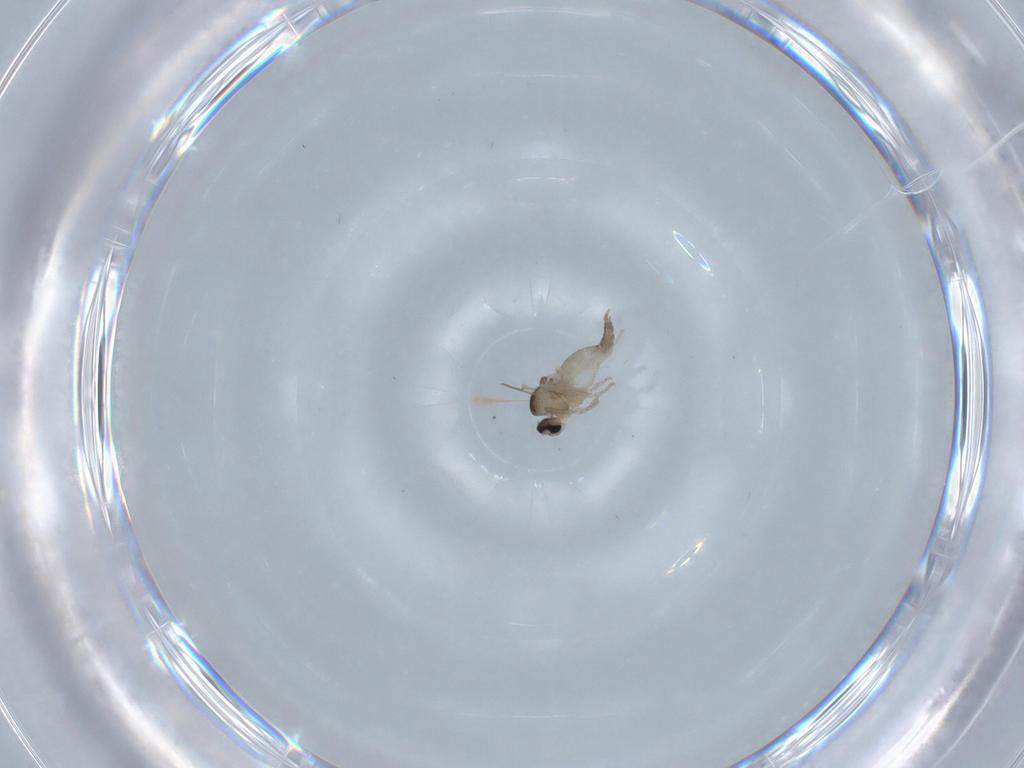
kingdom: Animalia
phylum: Arthropoda
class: Insecta
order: Diptera
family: Cecidomyiidae
